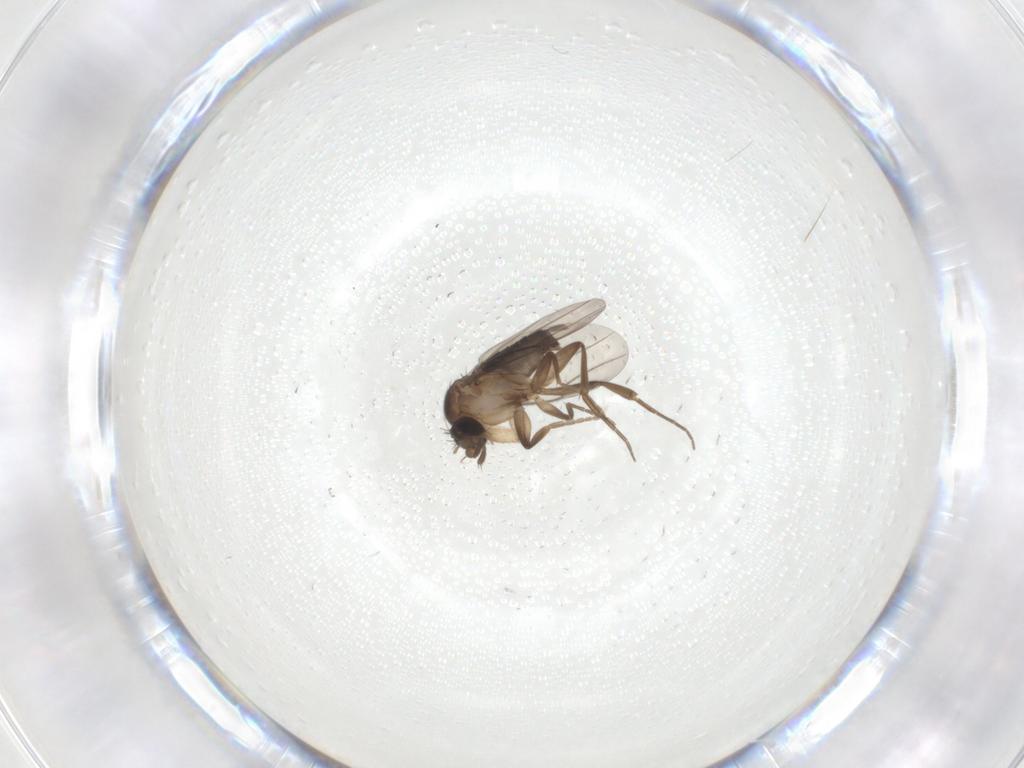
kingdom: Animalia
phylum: Arthropoda
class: Insecta
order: Diptera
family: Phoridae
